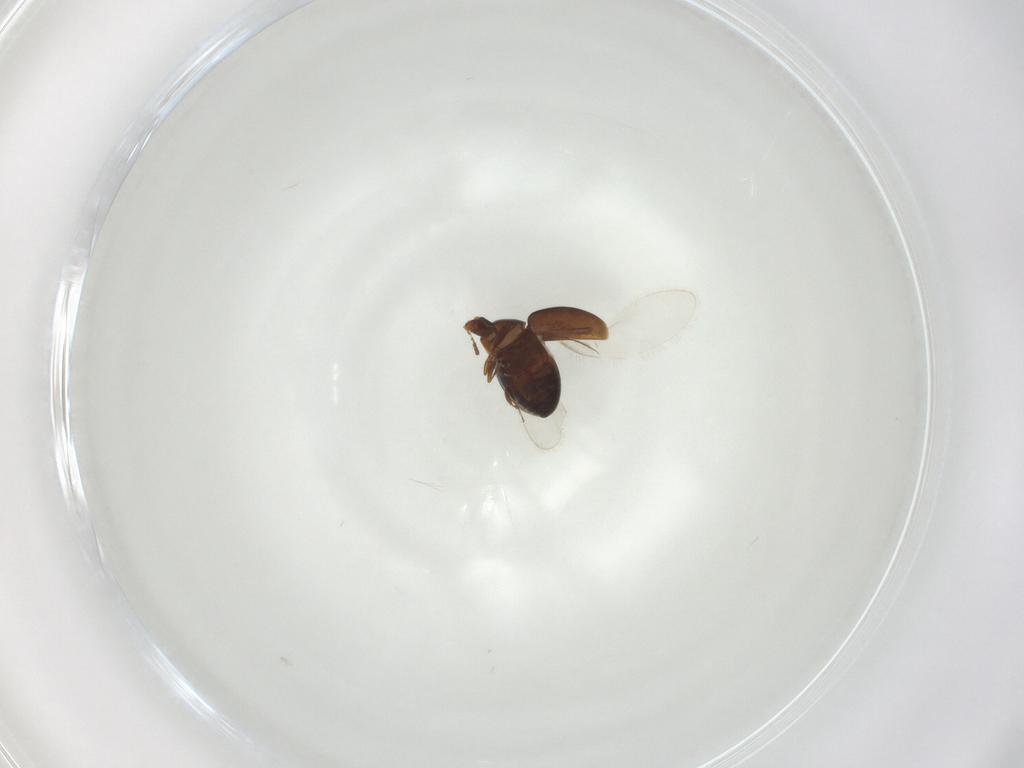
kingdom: Animalia
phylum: Arthropoda
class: Insecta
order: Coleoptera
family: Corylophidae
